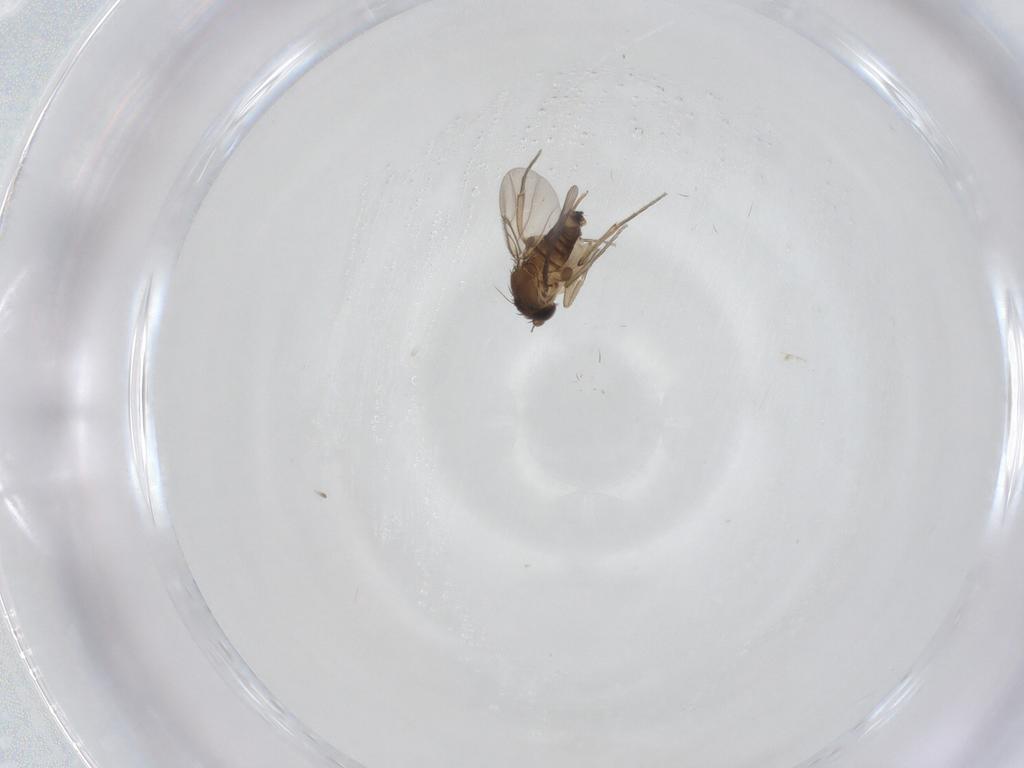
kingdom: Animalia
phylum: Arthropoda
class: Insecta
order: Diptera
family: Phoridae
